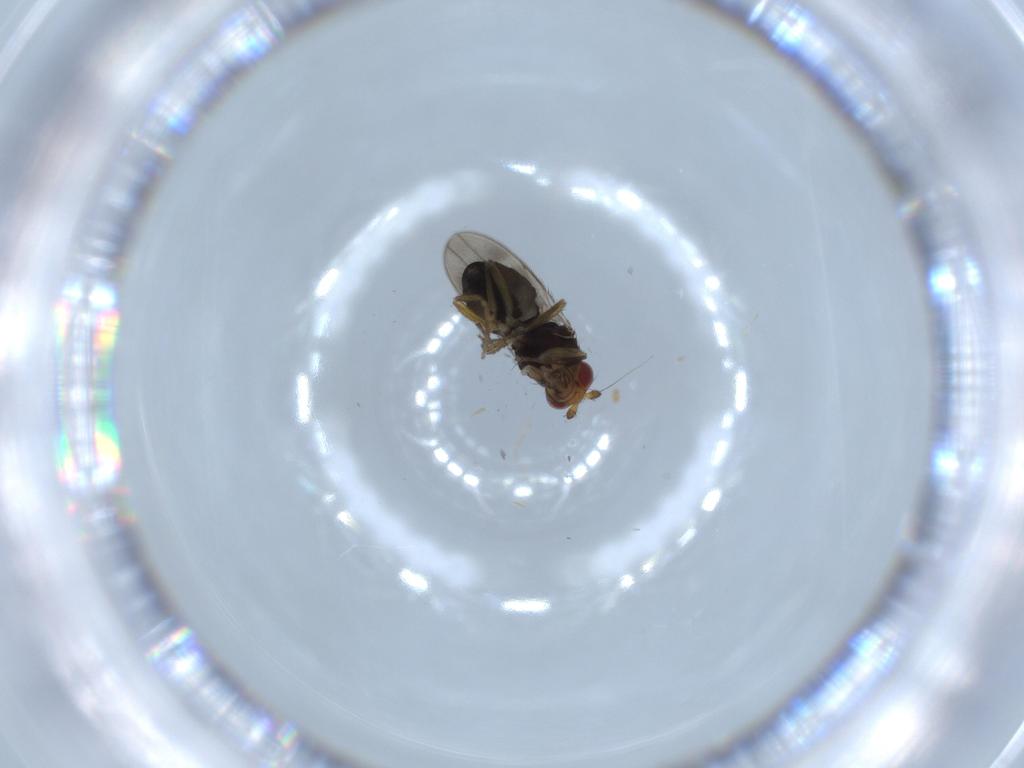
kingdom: Animalia
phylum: Arthropoda
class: Insecta
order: Diptera
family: Sphaeroceridae
